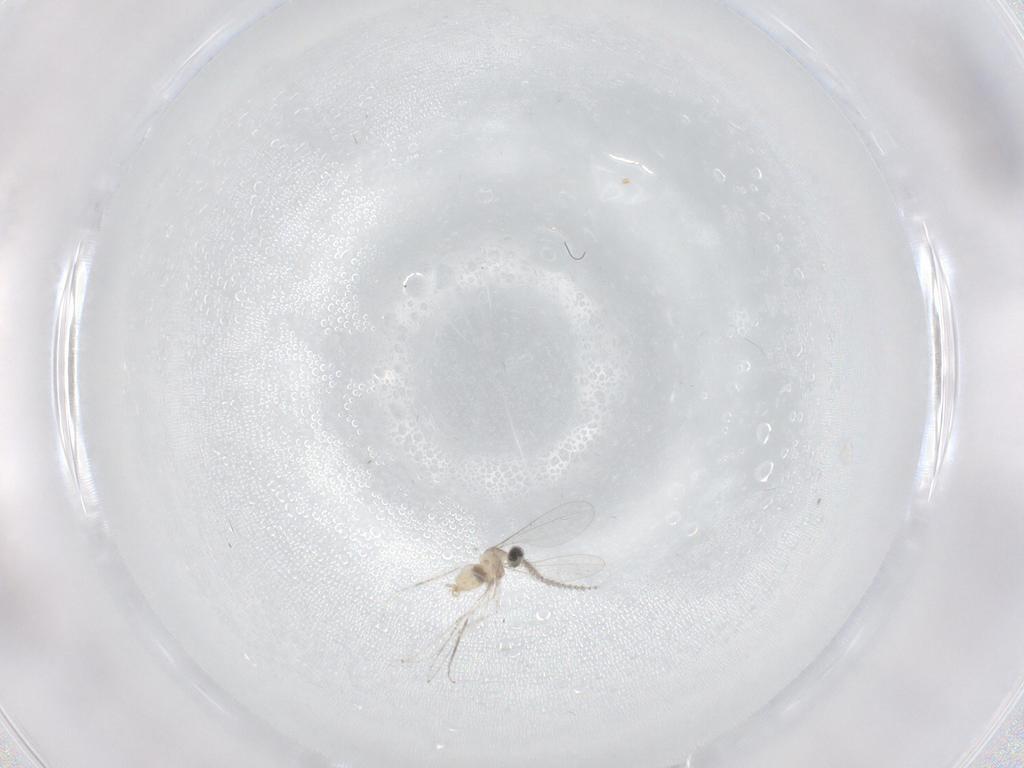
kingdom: Animalia
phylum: Arthropoda
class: Insecta
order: Diptera
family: Cecidomyiidae
